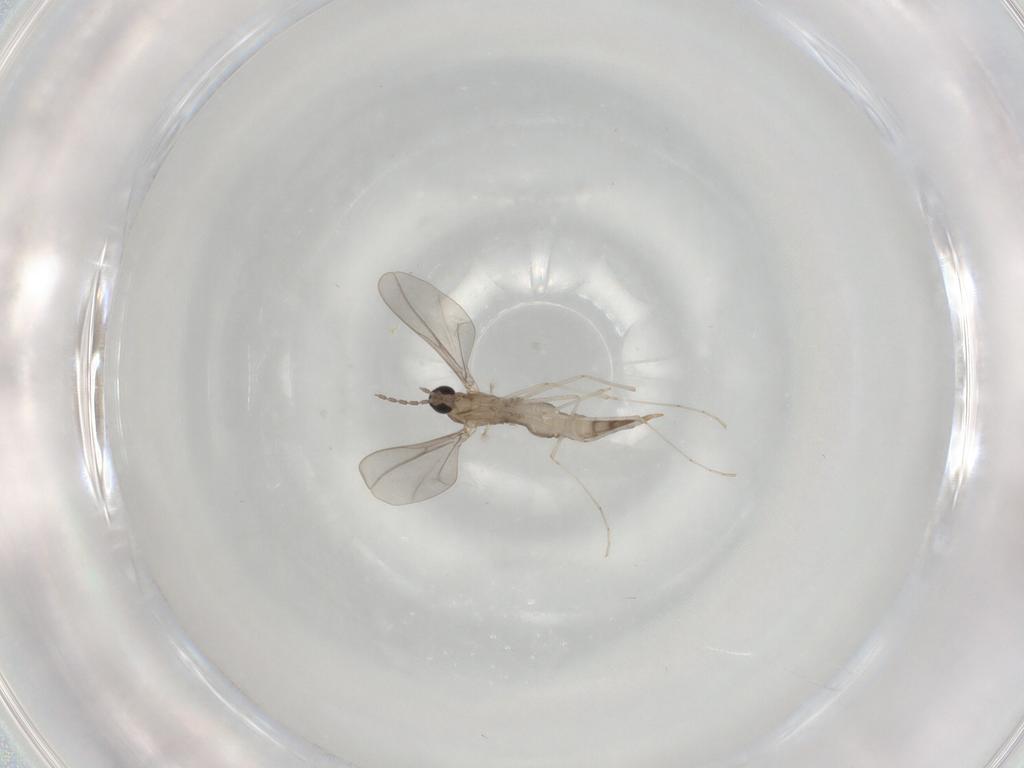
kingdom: Animalia
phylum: Arthropoda
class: Insecta
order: Diptera
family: Cecidomyiidae
